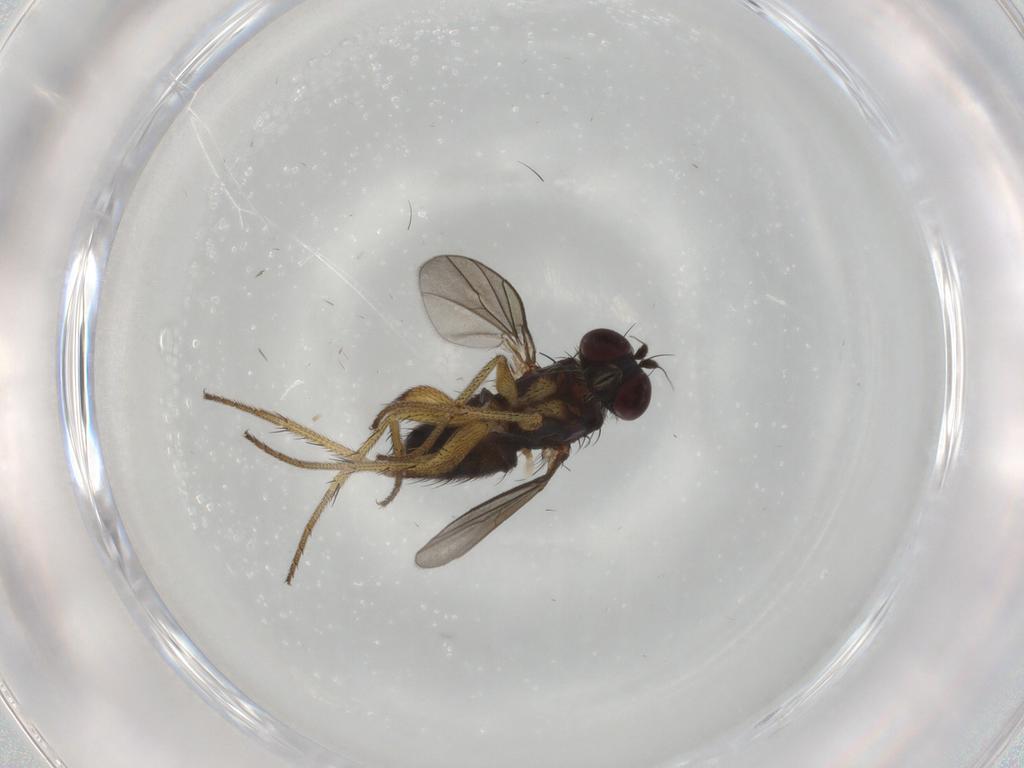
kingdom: Animalia
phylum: Arthropoda
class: Insecta
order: Diptera
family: Dolichopodidae
